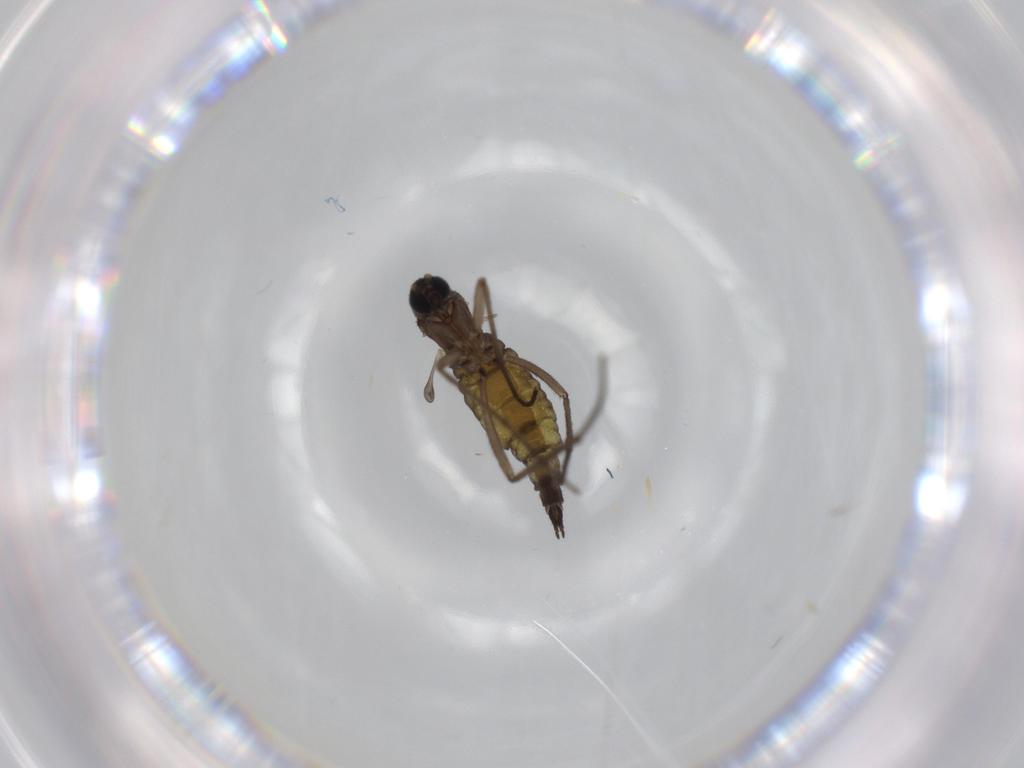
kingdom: Animalia
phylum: Arthropoda
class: Insecta
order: Diptera
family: Sciaridae
